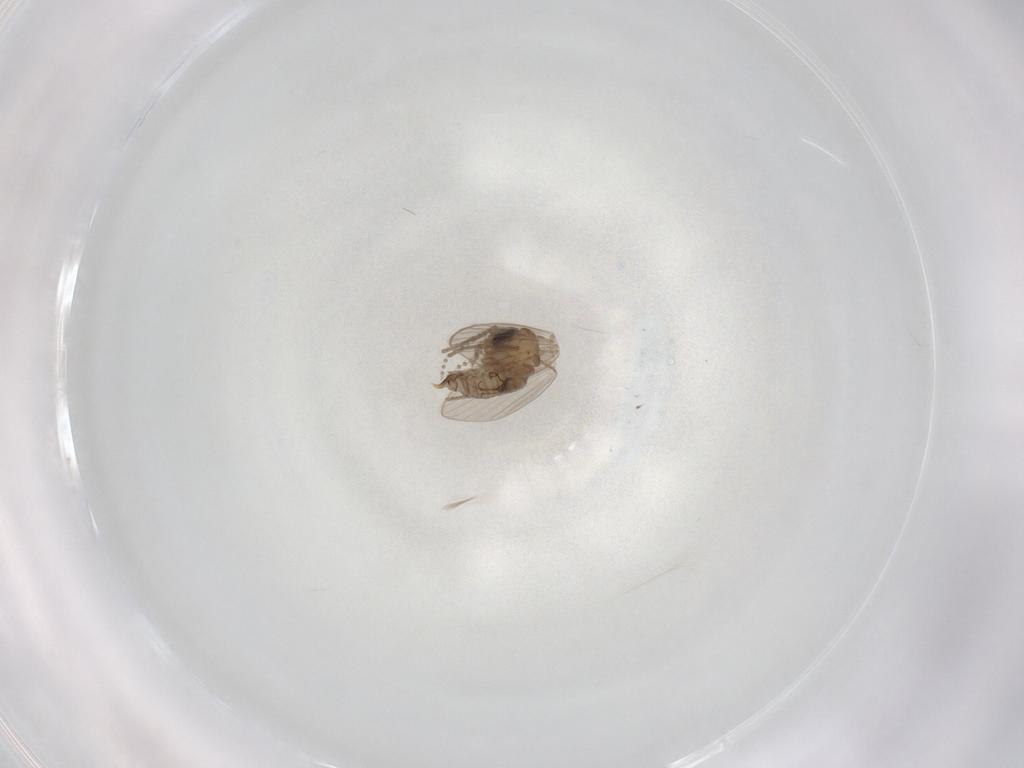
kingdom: Animalia
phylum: Arthropoda
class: Insecta
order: Diptera
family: Psychodidae
